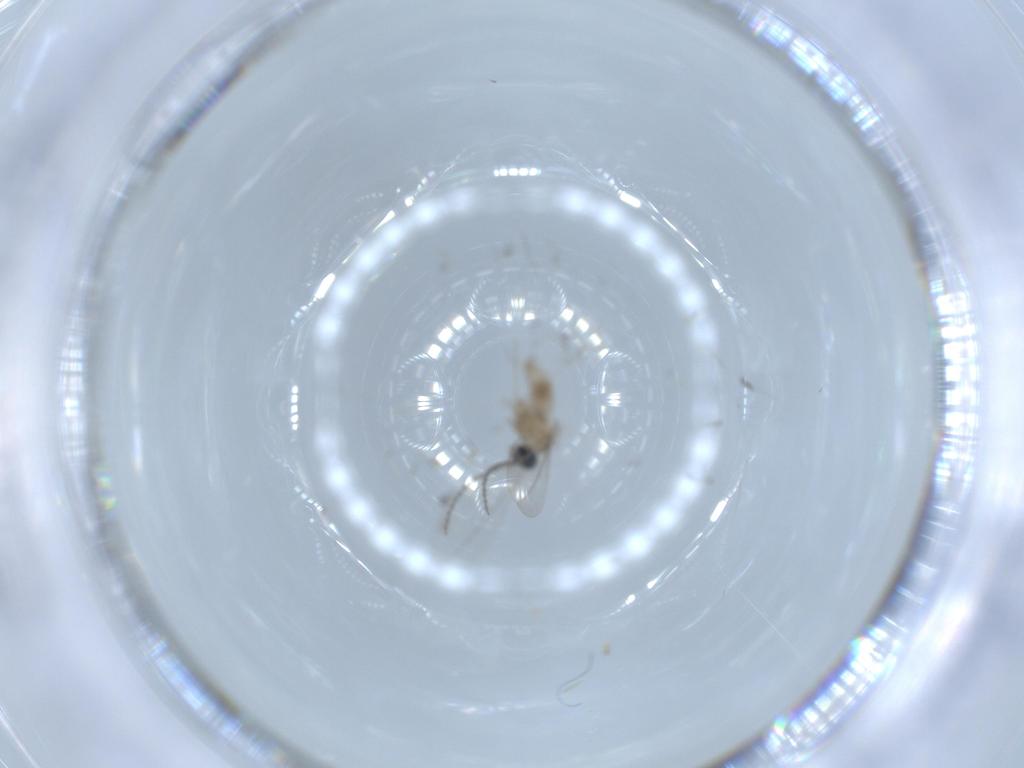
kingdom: Animalia
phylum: Arthropoda
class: Insecta
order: Diptera
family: Cecidomyiidae
